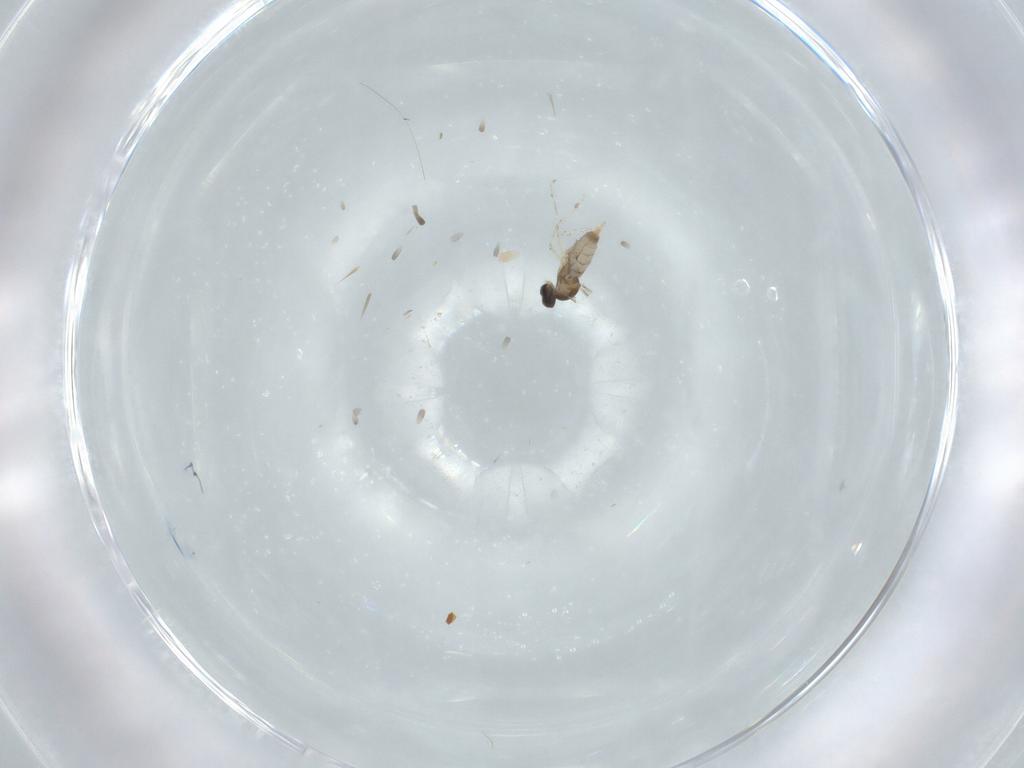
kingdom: Animalia
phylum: Arthropoda
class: Insecta
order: Diptera
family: Cecidomyiidae
